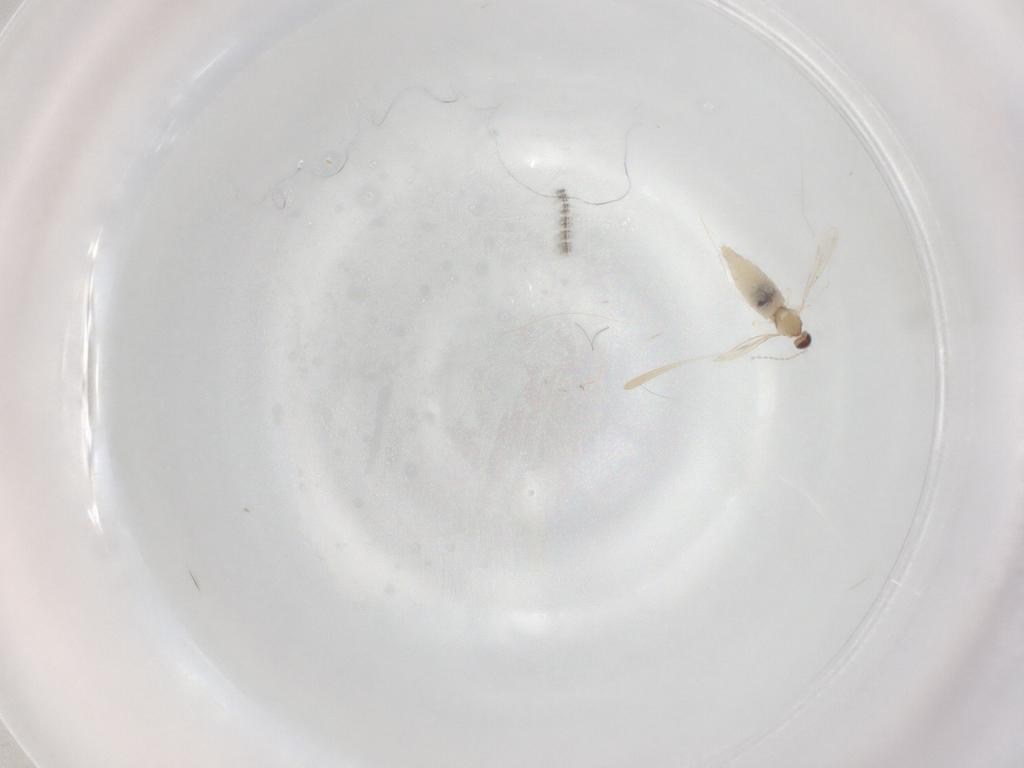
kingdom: Animalia
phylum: Arthropoda
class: Insecta
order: Diptera
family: Cecidomyiidae
